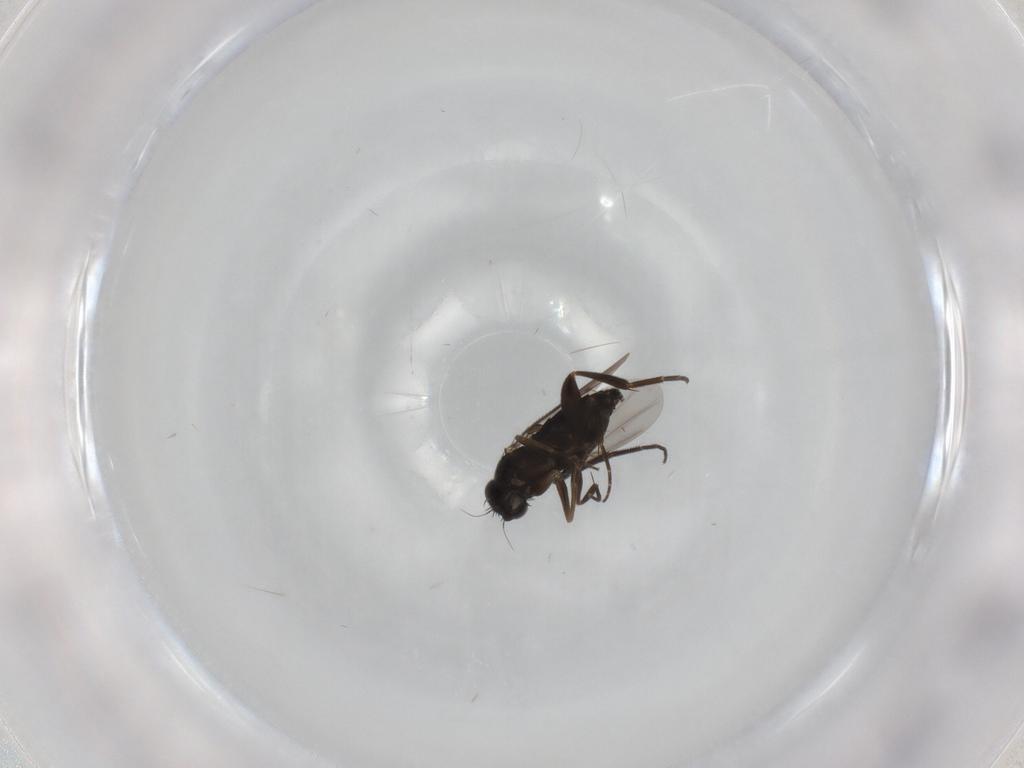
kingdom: Animalia
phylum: Arthropoda
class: Insecta
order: Diptera
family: Phoridae
